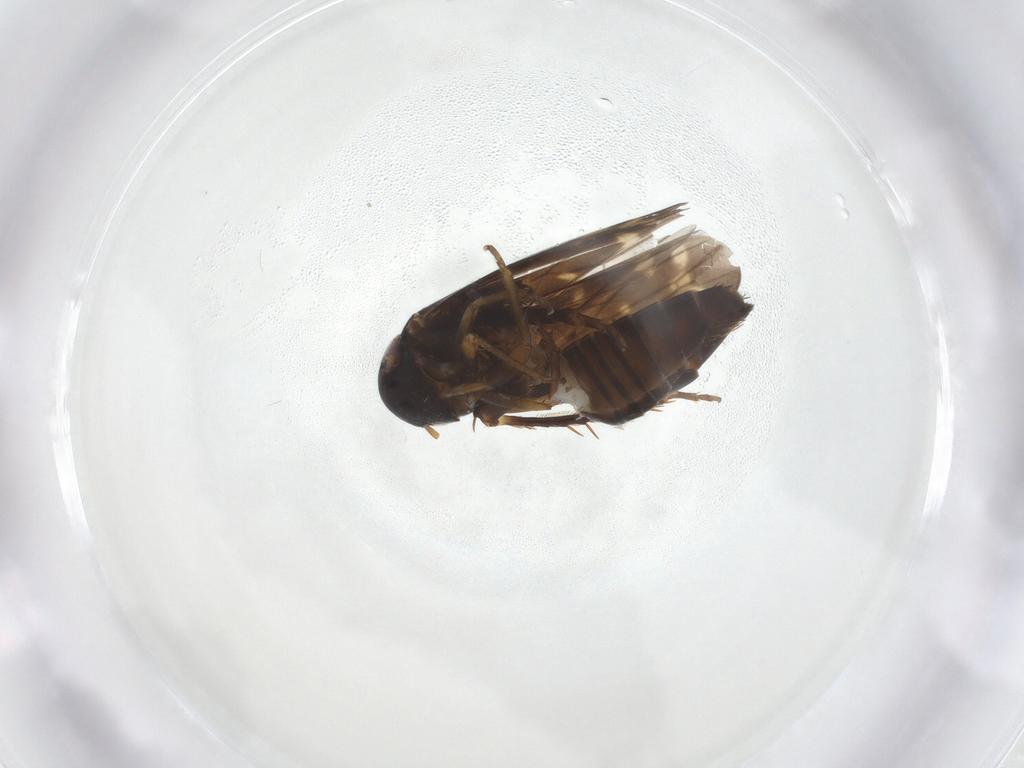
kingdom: Animalia
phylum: Arthropoda
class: Insecta
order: Hemiptera
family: Cicadellidae
